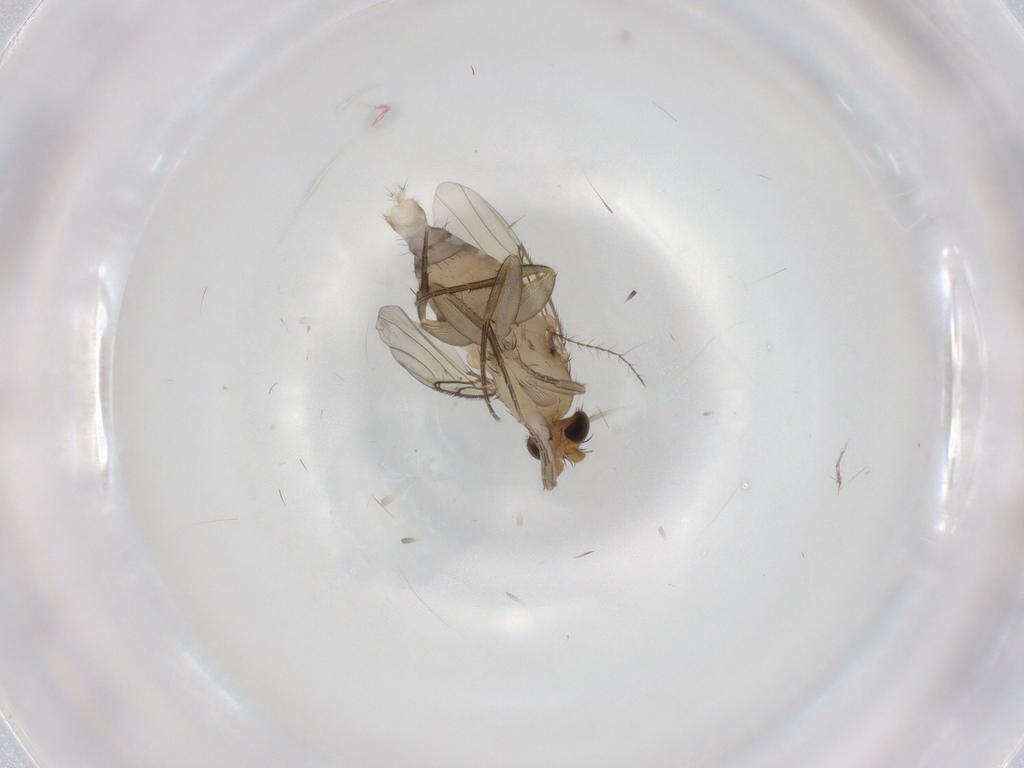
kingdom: Animalia
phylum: Arthropoda
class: Insecta
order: Diptera
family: Phoridae
